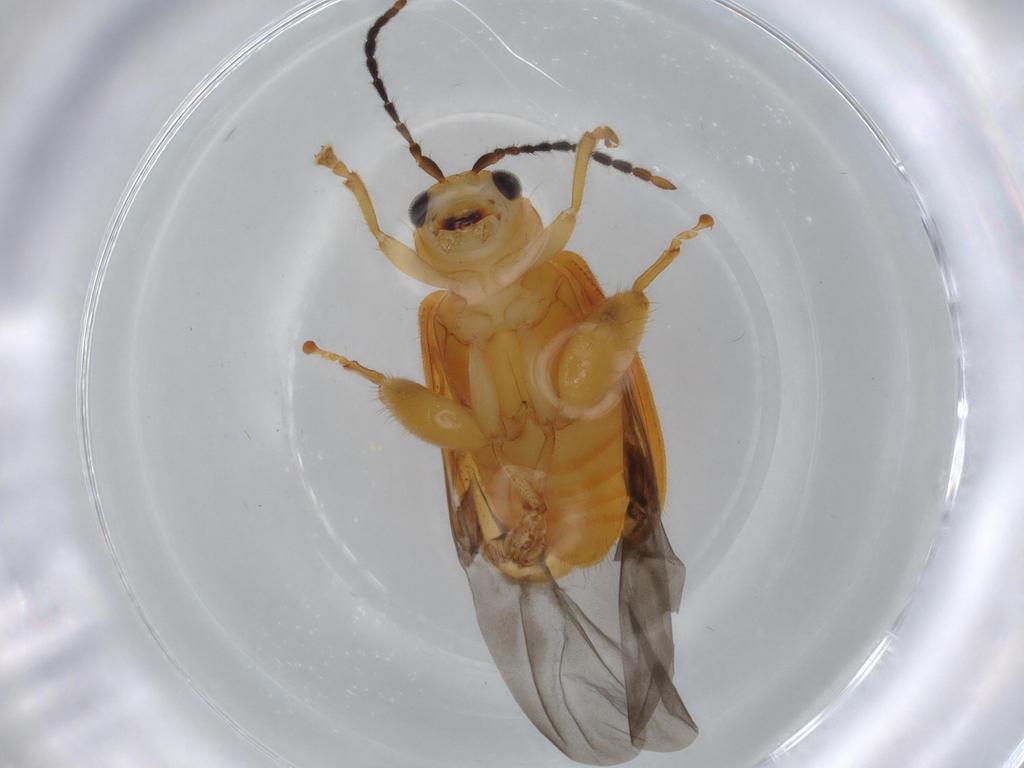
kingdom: Animalia
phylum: Arthropoda
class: Insecta
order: Coleoptera
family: Chrysomelidae
